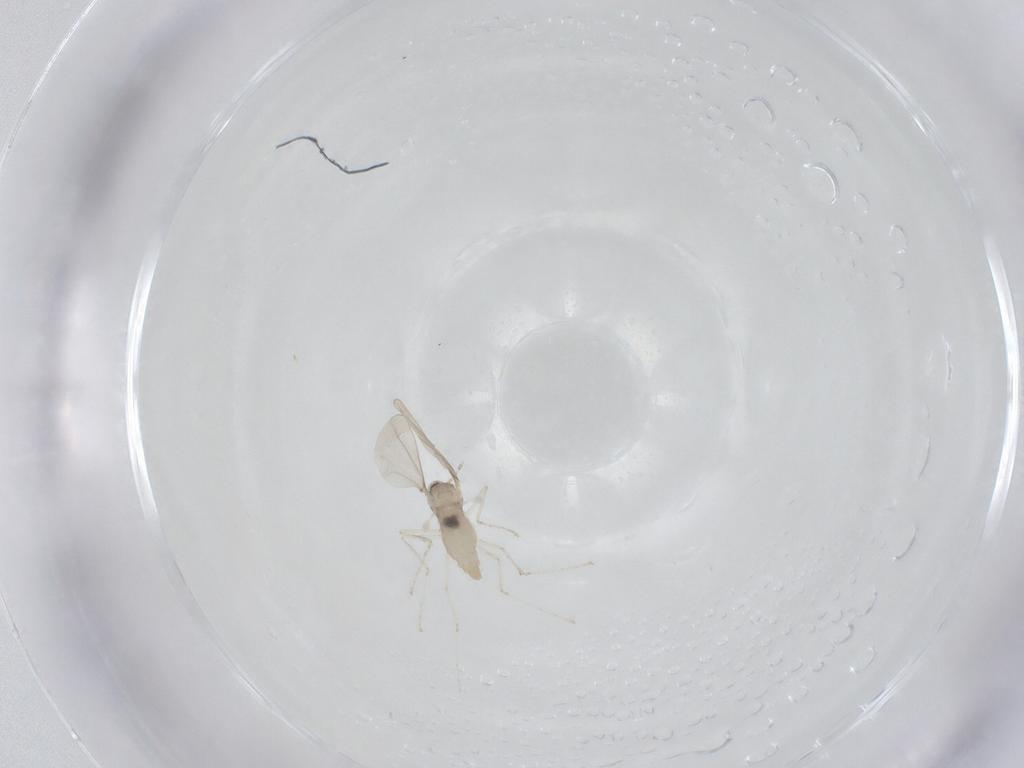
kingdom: Animalia
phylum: Arthropoda
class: Insecta
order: Diptera
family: Cecidomyiidae
